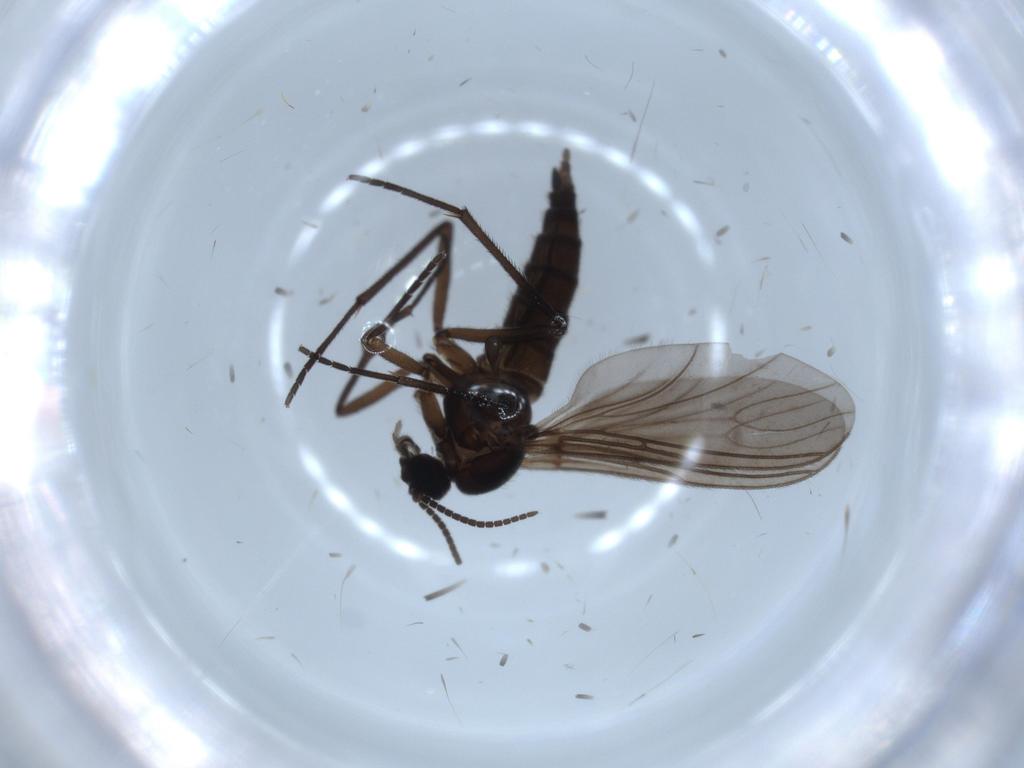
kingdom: Animalia
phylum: Arthropoda
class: Insecta
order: Diptera
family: Sciaridae
